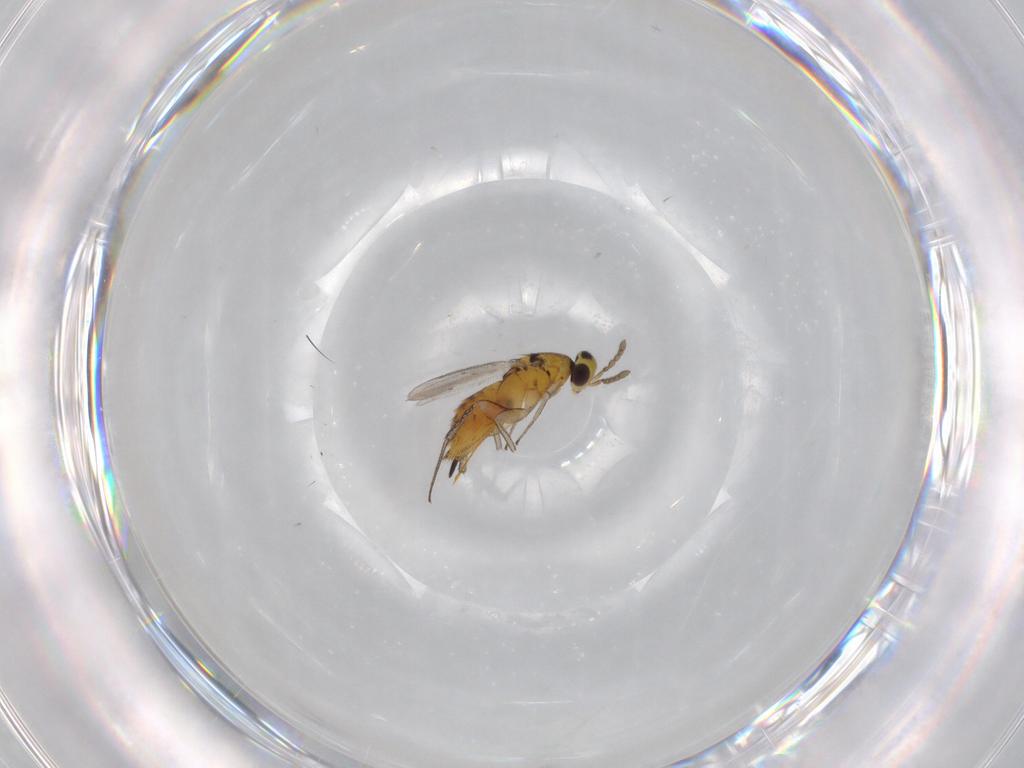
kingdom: Animalia
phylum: Arthropoda
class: Insecta
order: Hymenoptera
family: Eulophidae
